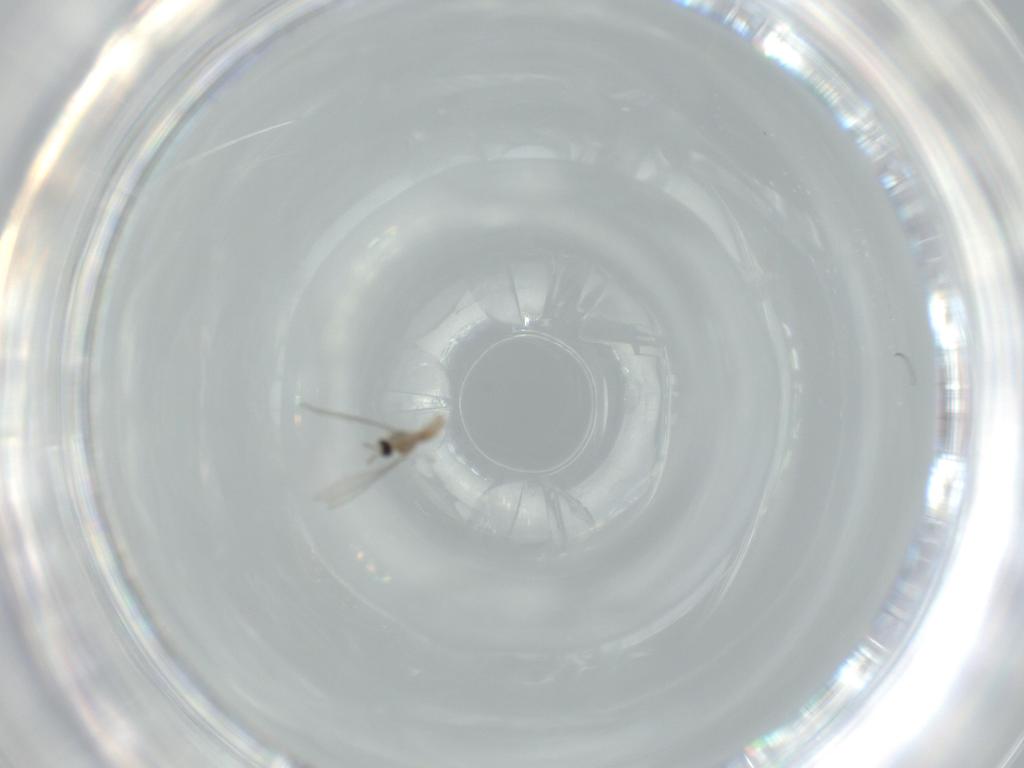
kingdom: Animalia
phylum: Arthropoda
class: Insecta
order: Diptera
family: Cecidomyiidae
